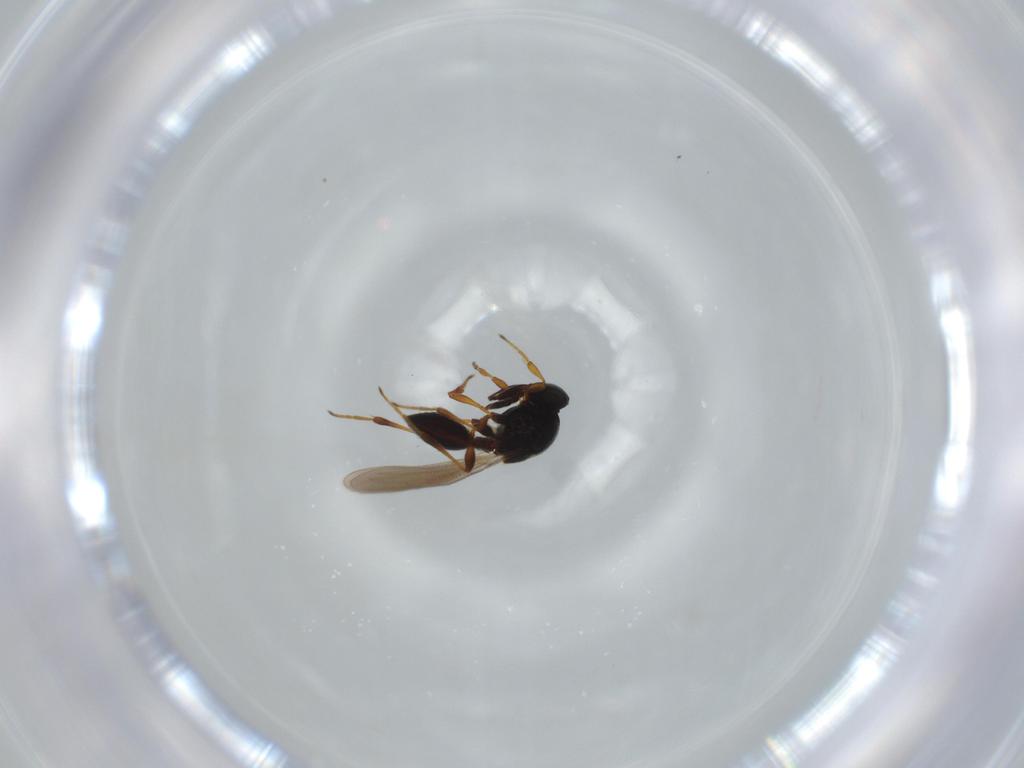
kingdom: Animalia
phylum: Arthropoda
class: Insecta
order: Hymenoptera
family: Platygastridae
